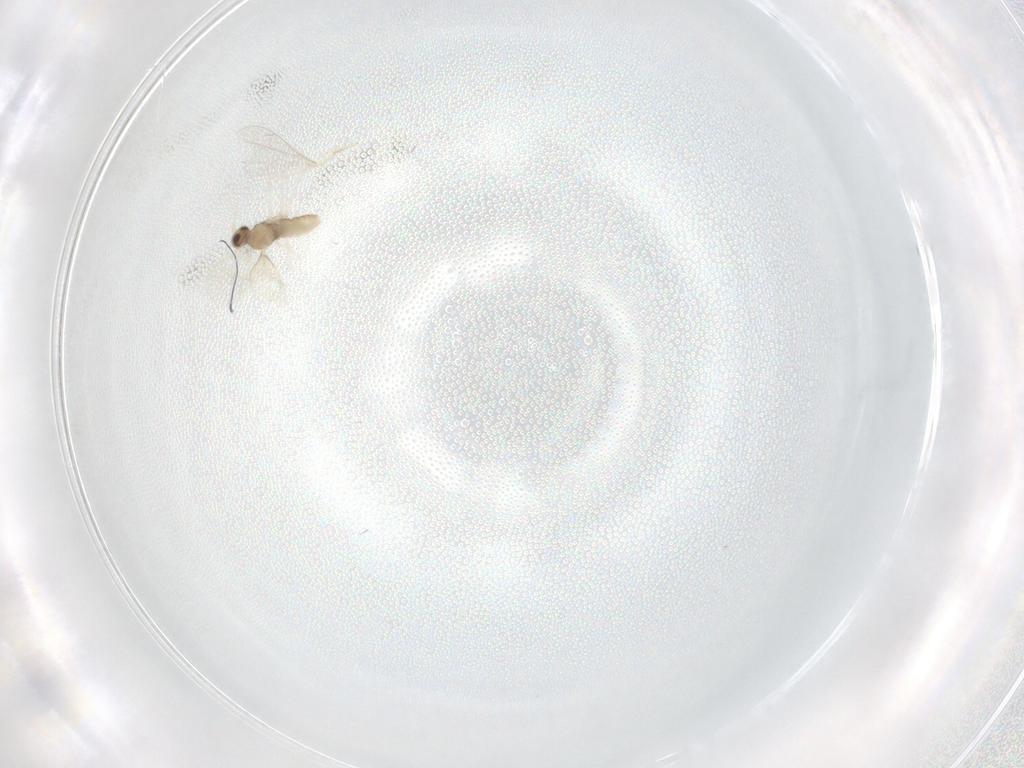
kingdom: Animalia
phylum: Arthropoda
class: Insecta
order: Diptera
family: Cecidomyiidae
